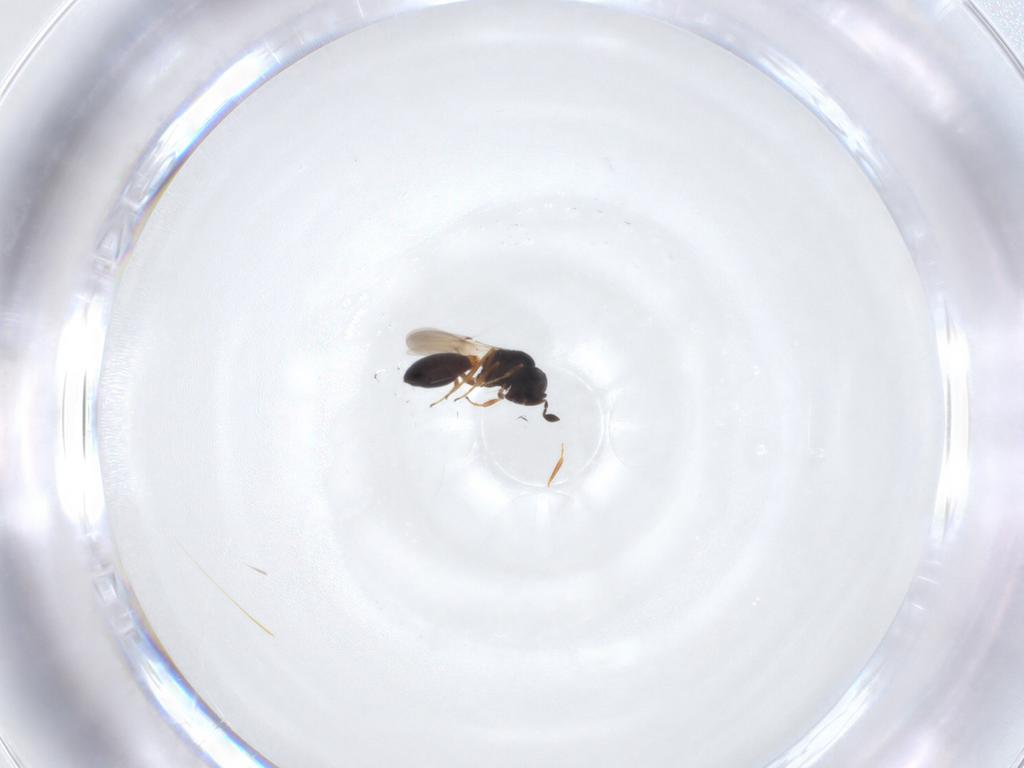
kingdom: Animalia
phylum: Arthropoda
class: Insecta
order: Hymenoptera
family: Scelionidae
